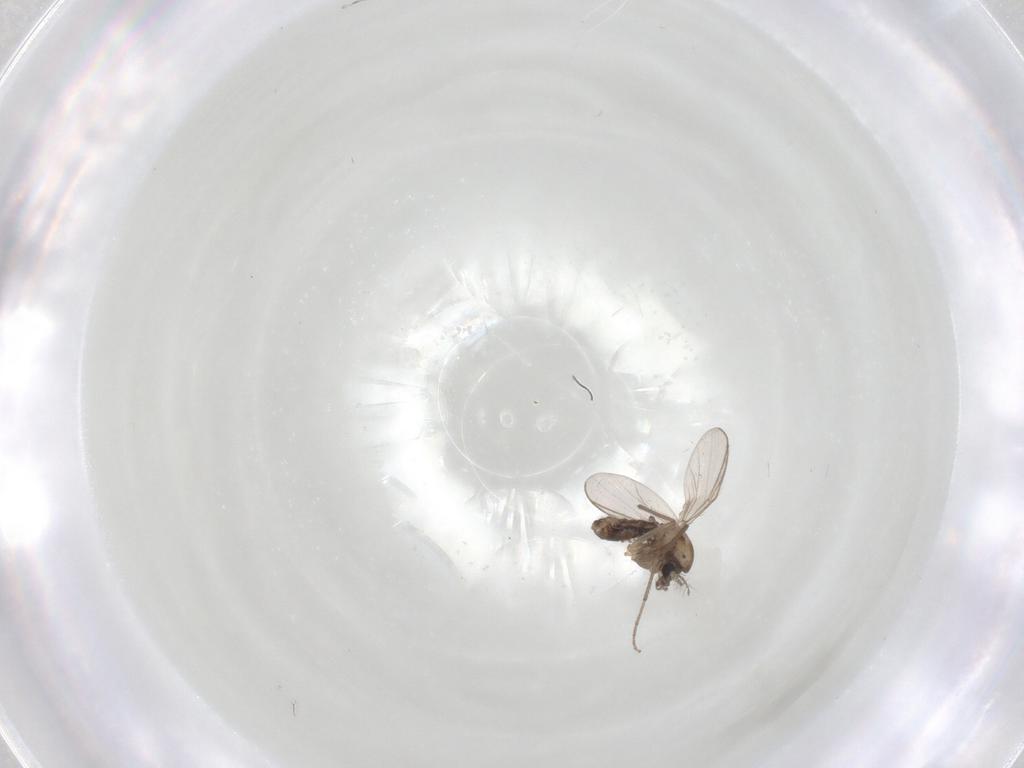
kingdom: Animalia
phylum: Arthropoda
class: Insecta
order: Diptera
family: Chironomidae
